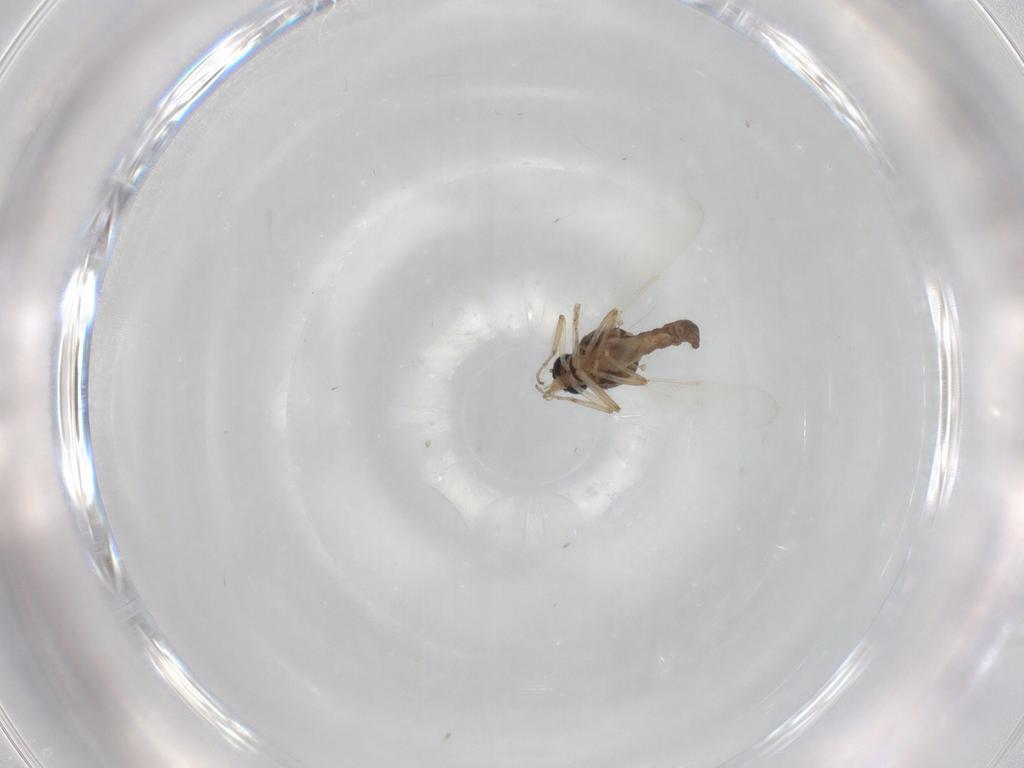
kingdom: Animalia
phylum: Arthropoda
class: Insecta
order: Diptera
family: Ceratopogonidae
